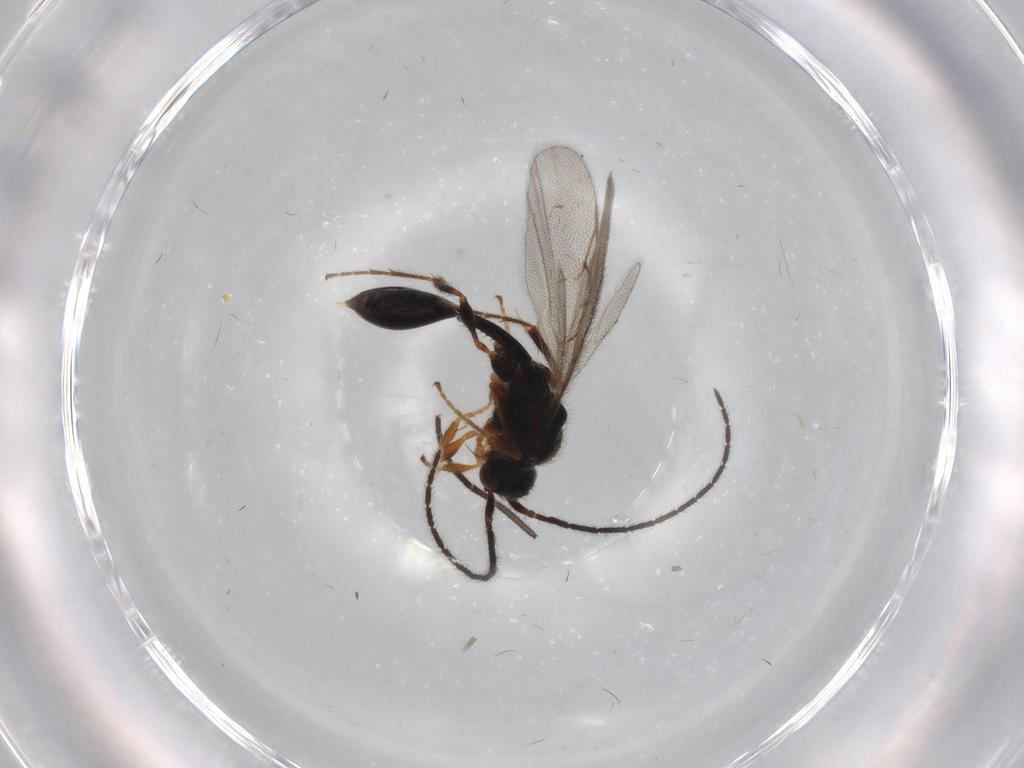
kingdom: Animalia
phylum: Arthropoda
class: Insecta
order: Hymenoptera
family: Diapriidae
